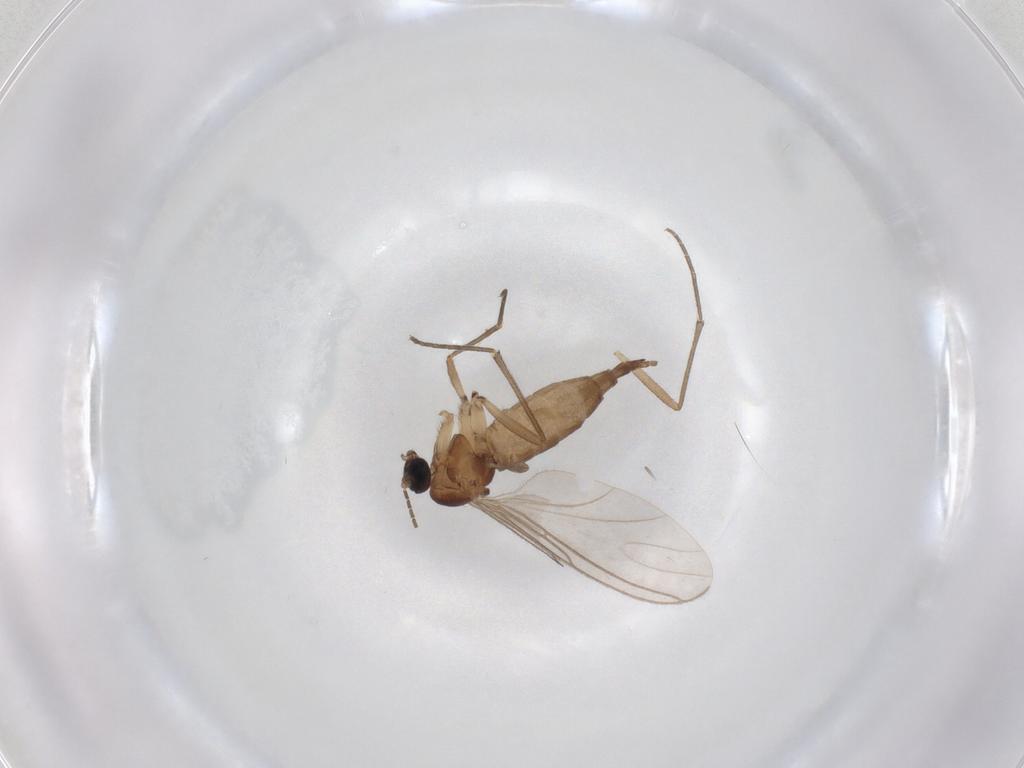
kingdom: Animalia
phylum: Arthropoda
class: Insecta
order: Diptera
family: Sciaridae
